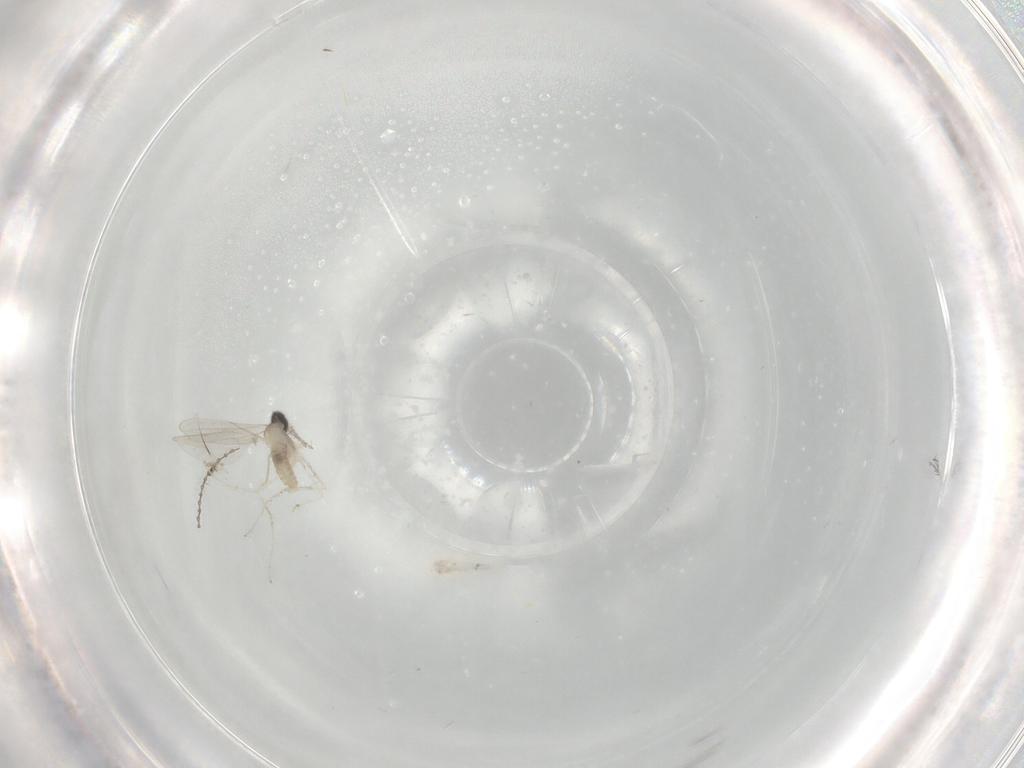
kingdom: Animalia
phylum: Arthropoda
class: Insecta
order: Diptera
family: Cecidomyiidae
